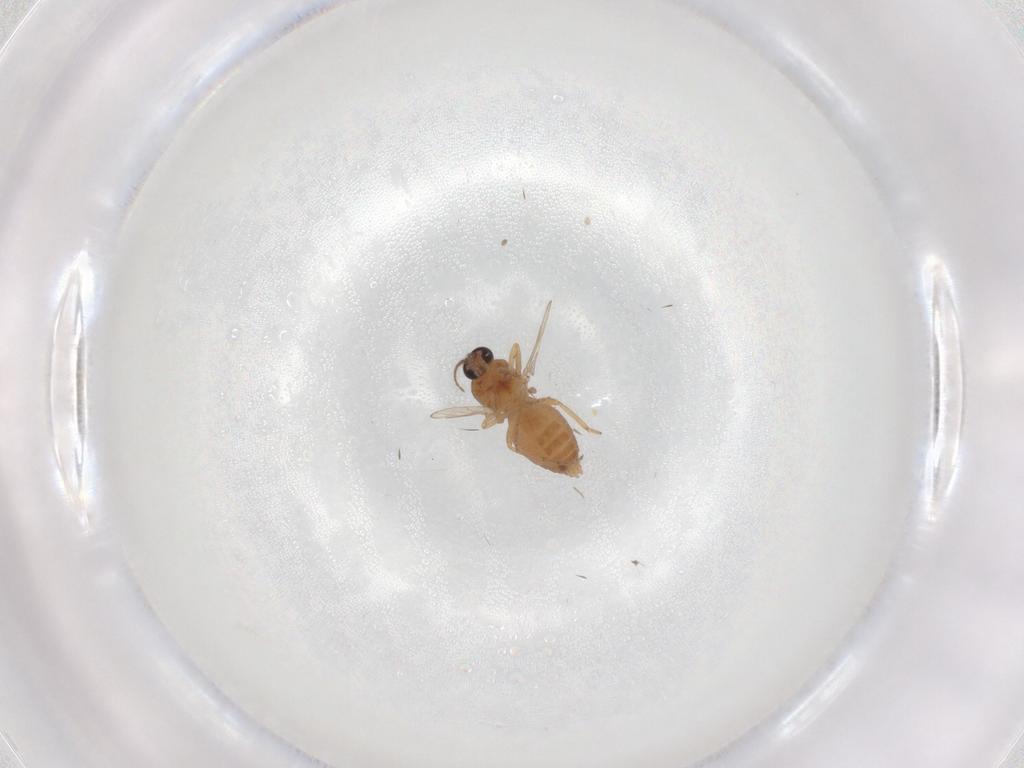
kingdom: Animalia
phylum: Arthropoda
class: Insecta
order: Diptera
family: Ceratopogonidae
